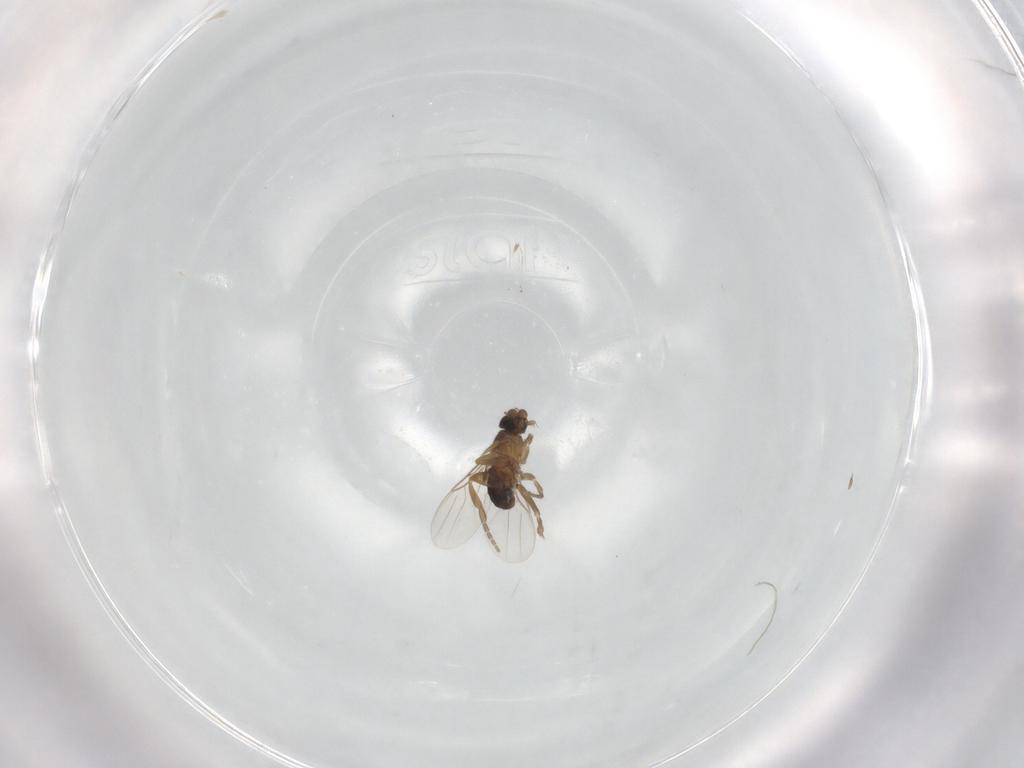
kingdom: Animalia
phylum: Arthropoda
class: Insecta
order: Diptera
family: Phoridae
